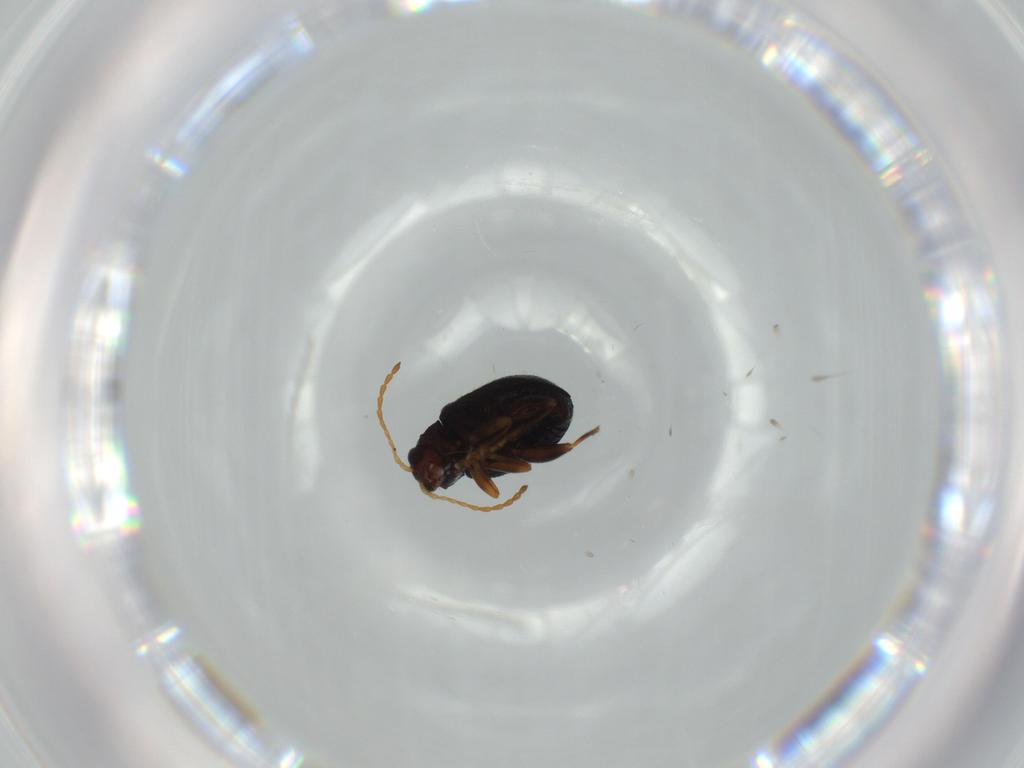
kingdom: Animalia
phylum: Arthropoda
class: Insecta
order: Coleoptera
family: Chrysomelidae
